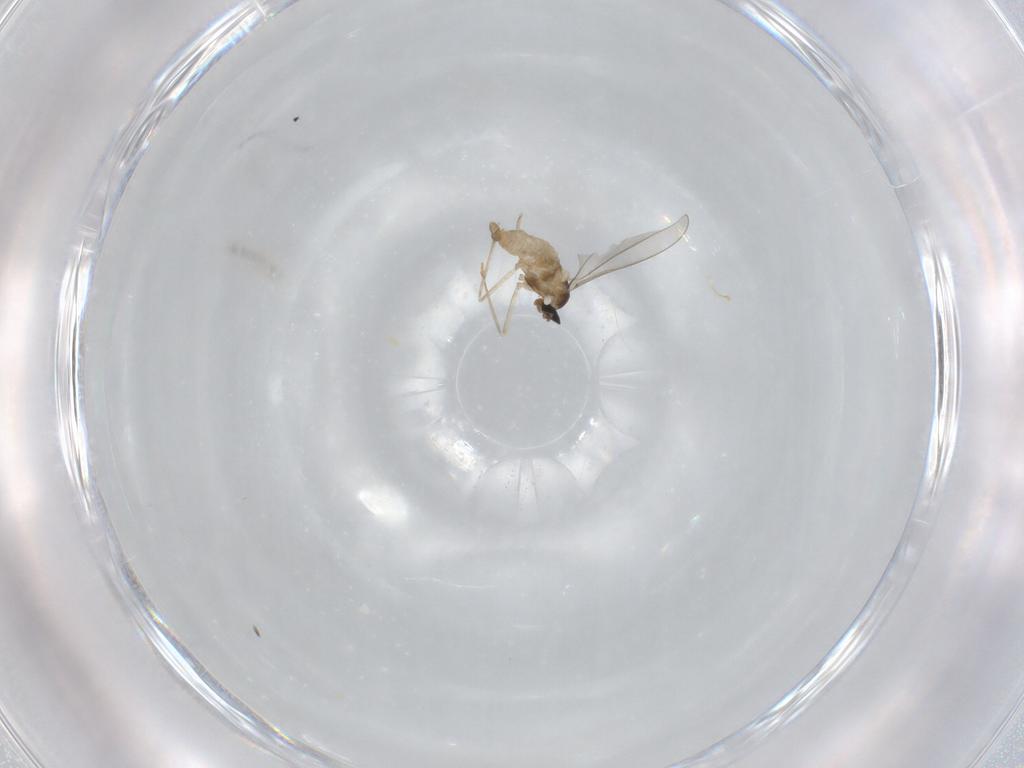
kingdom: Animalia
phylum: Arthropoda
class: Insecta
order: Diptera
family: Cecidomyiidae
